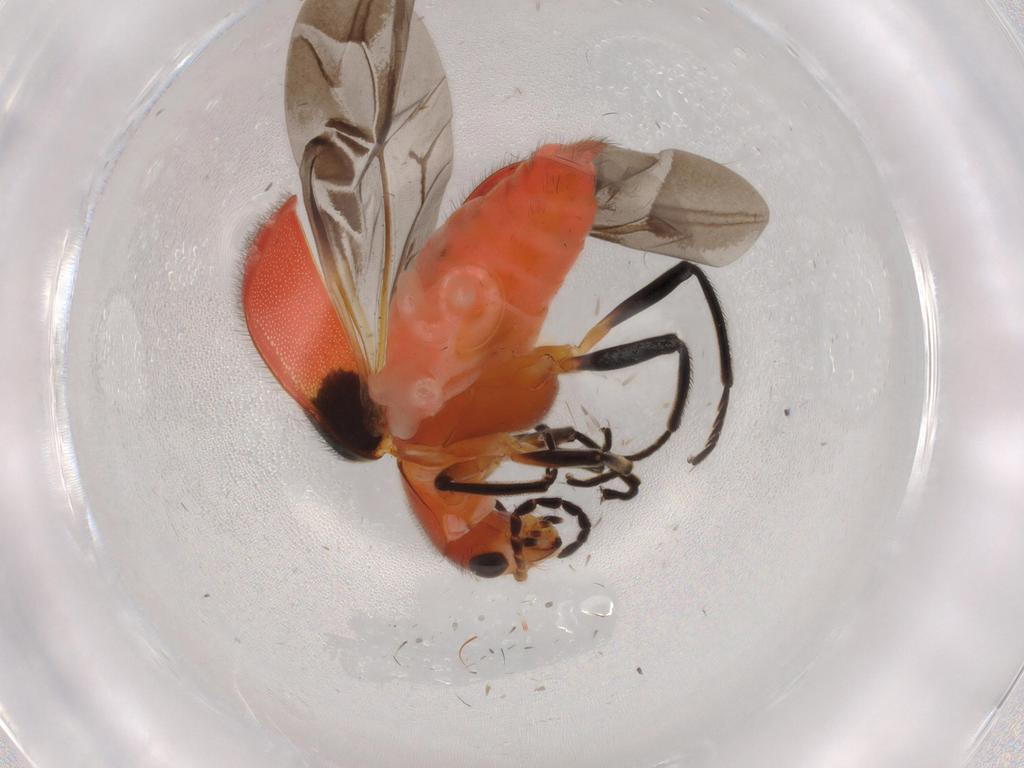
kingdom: Animalia
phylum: Arthropoda
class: Insecta
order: Coleoptera
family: Melyridae
